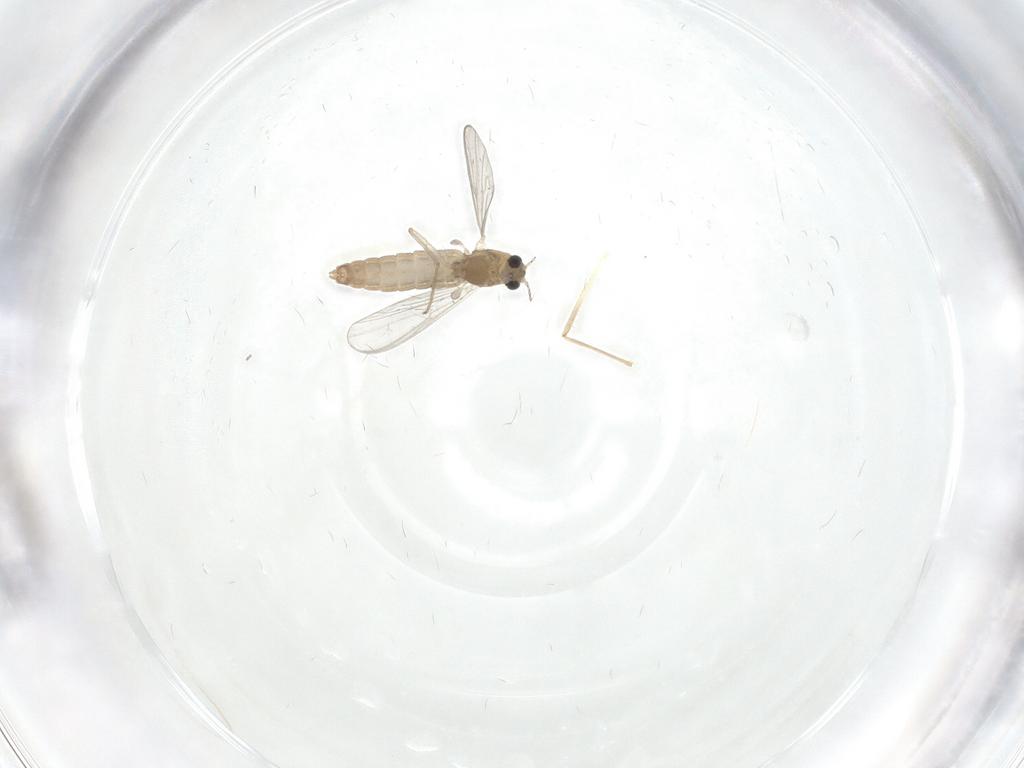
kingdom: Animalia
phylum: Arthropoda
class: Insecta
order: Diptera
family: Chironomidae
